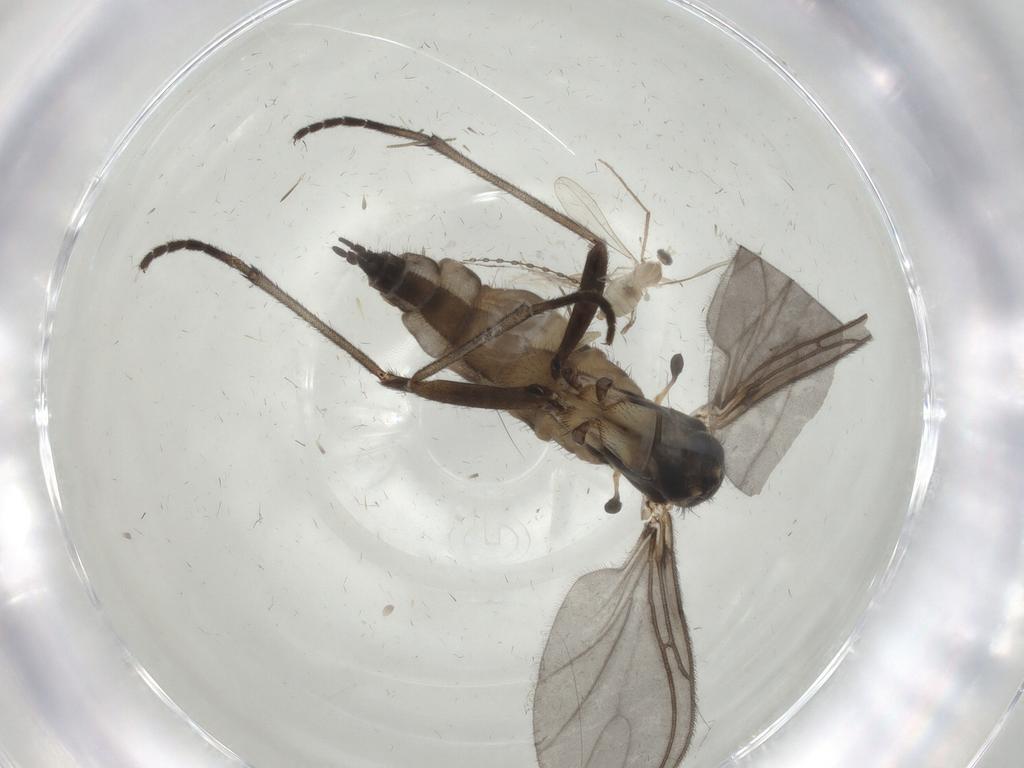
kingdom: Animalia
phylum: Arthropoda
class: Insecta
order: Diptera
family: Sciaridae
